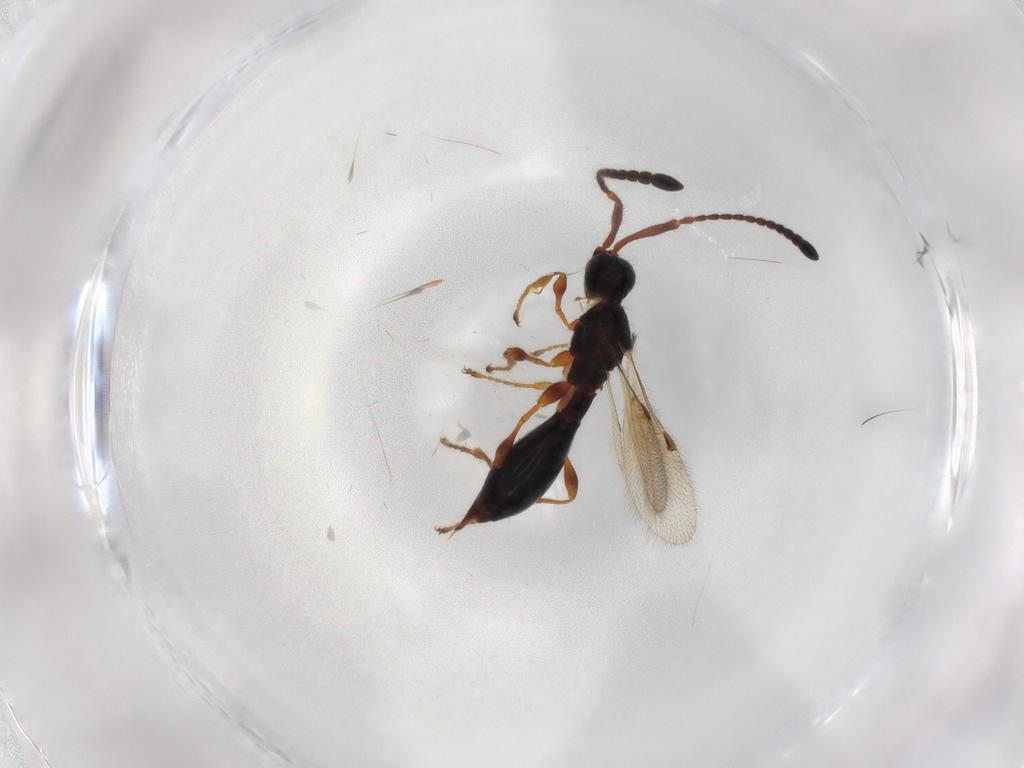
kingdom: Animalia
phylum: Arthropoda
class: Insecta
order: Hymenoptera
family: Diapriidae
